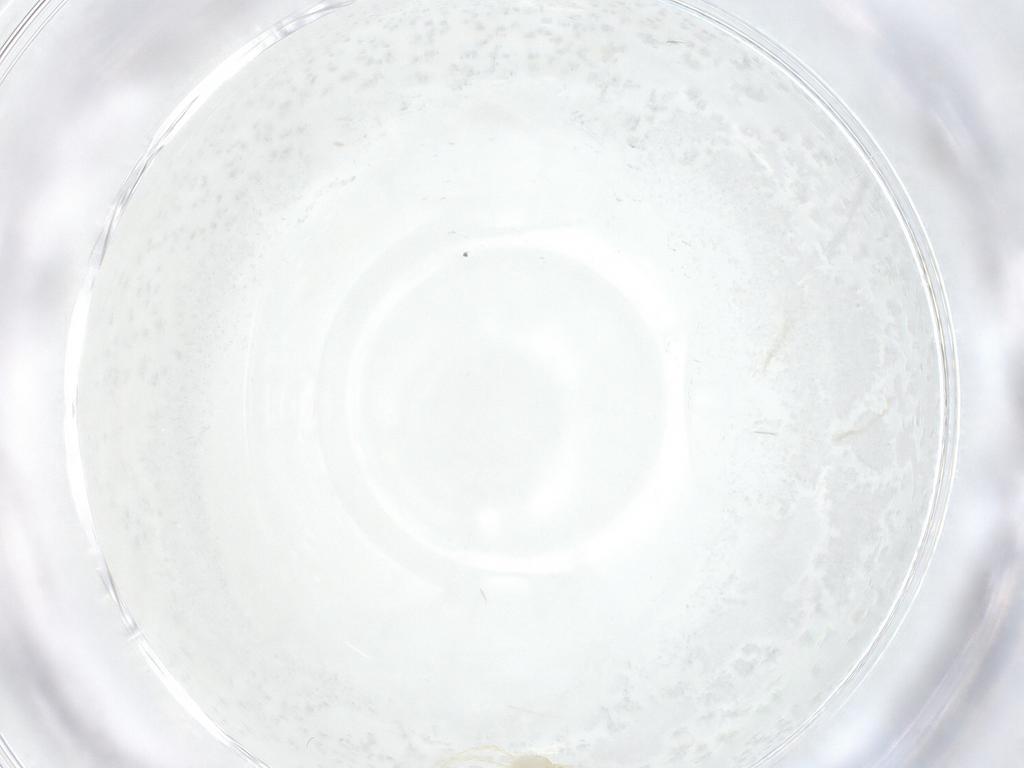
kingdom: Animalia
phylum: Arthropoda
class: Arachnida
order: Trombidiformes
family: Erythraeidae
